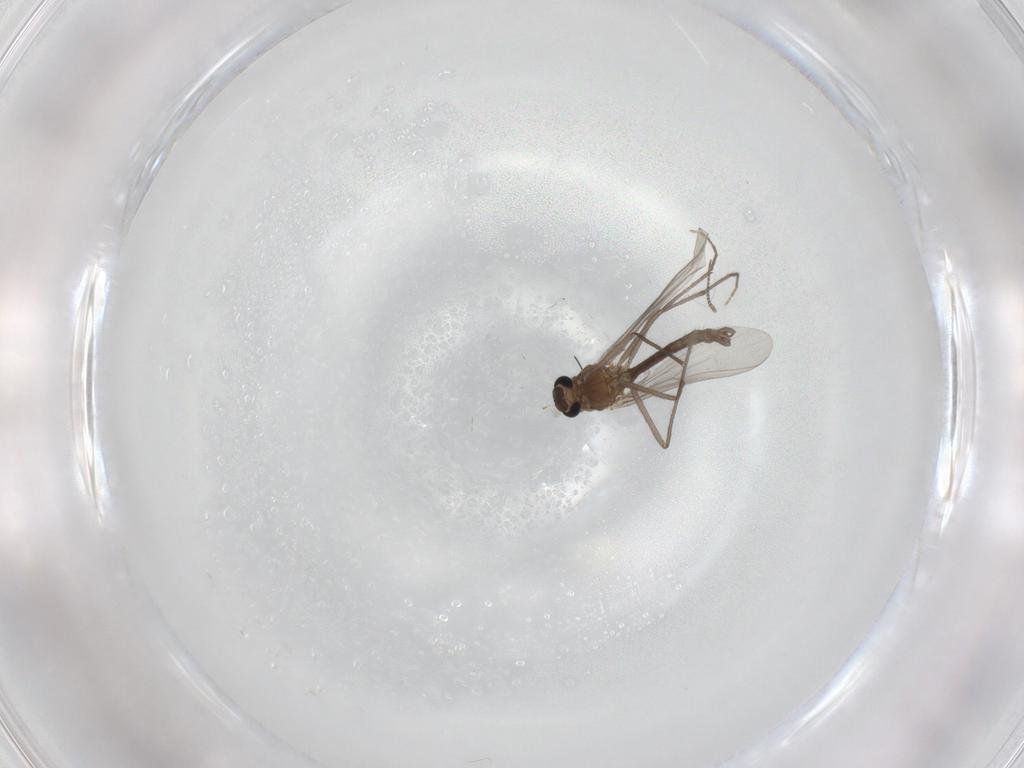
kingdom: Animalia
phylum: Arthropoda
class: Insecta
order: Diptera
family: Chironomidae
